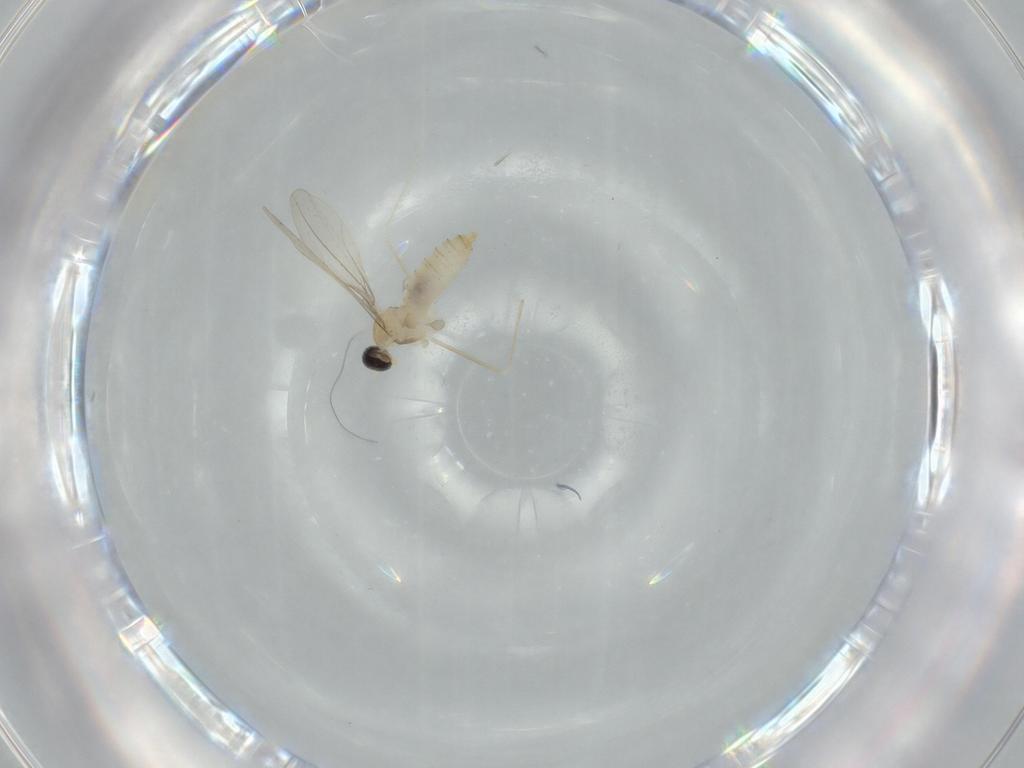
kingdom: Animalia
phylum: Arthropoda
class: Insecta
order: Diptera
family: Cecidomyiidae
